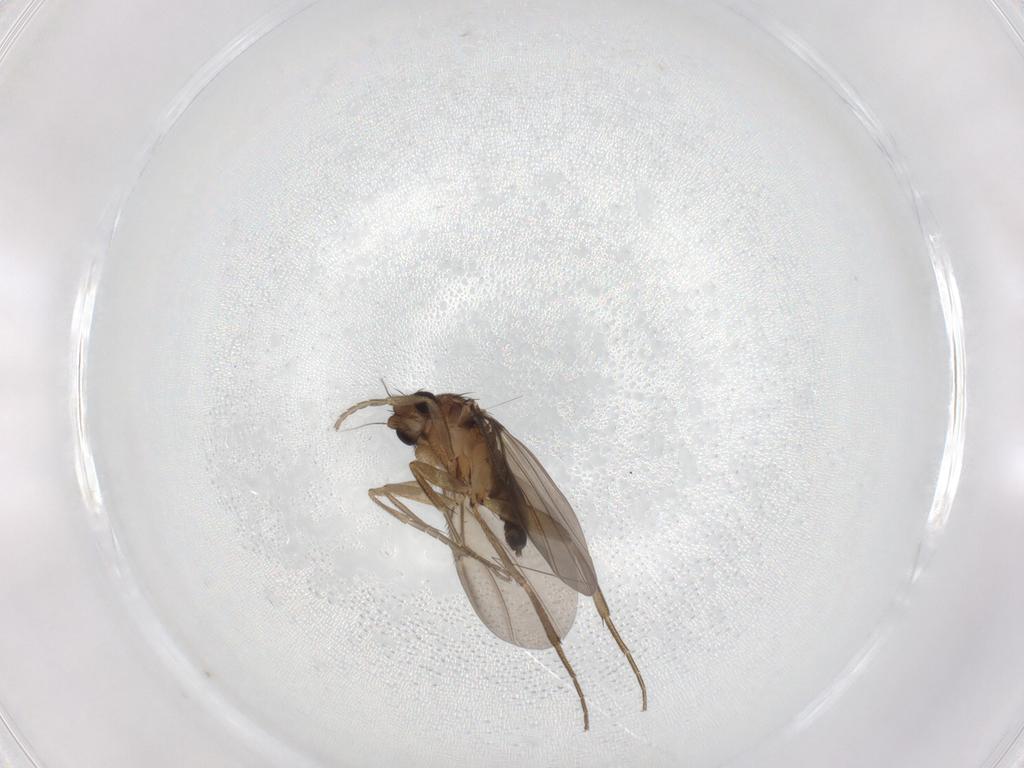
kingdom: Animalia
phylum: Arthropoda
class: Insecta
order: Diptera
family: Phoridae
